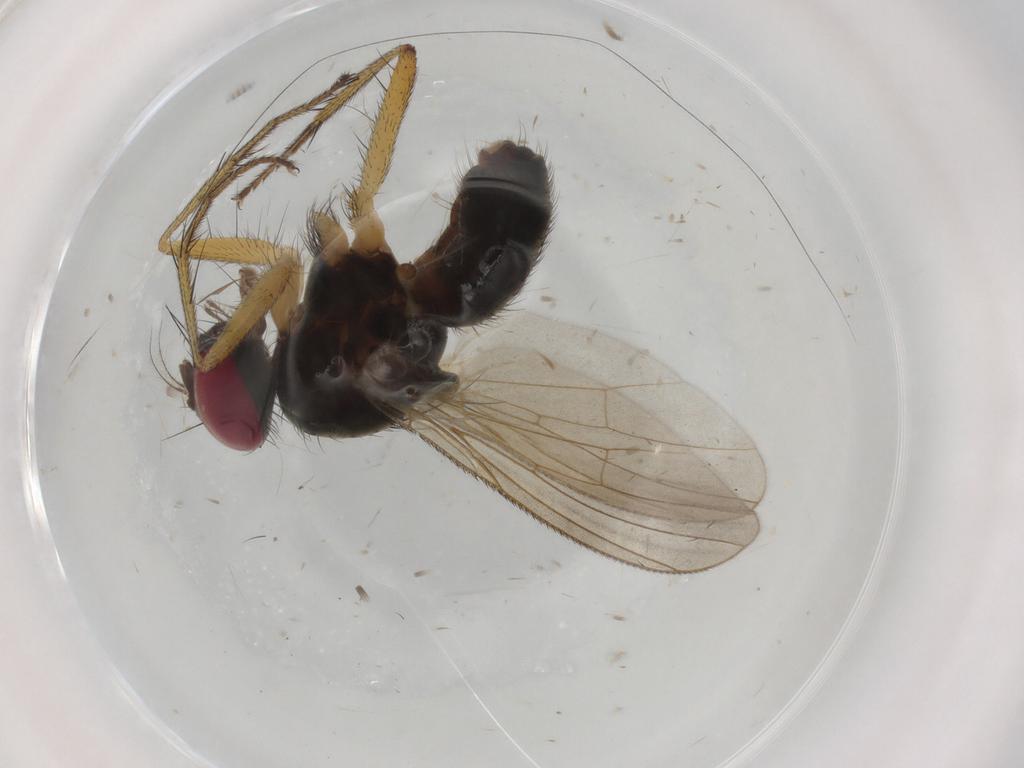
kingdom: Animalia
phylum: Arthropoda
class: Insecta
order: Diptera
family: Muscidae
